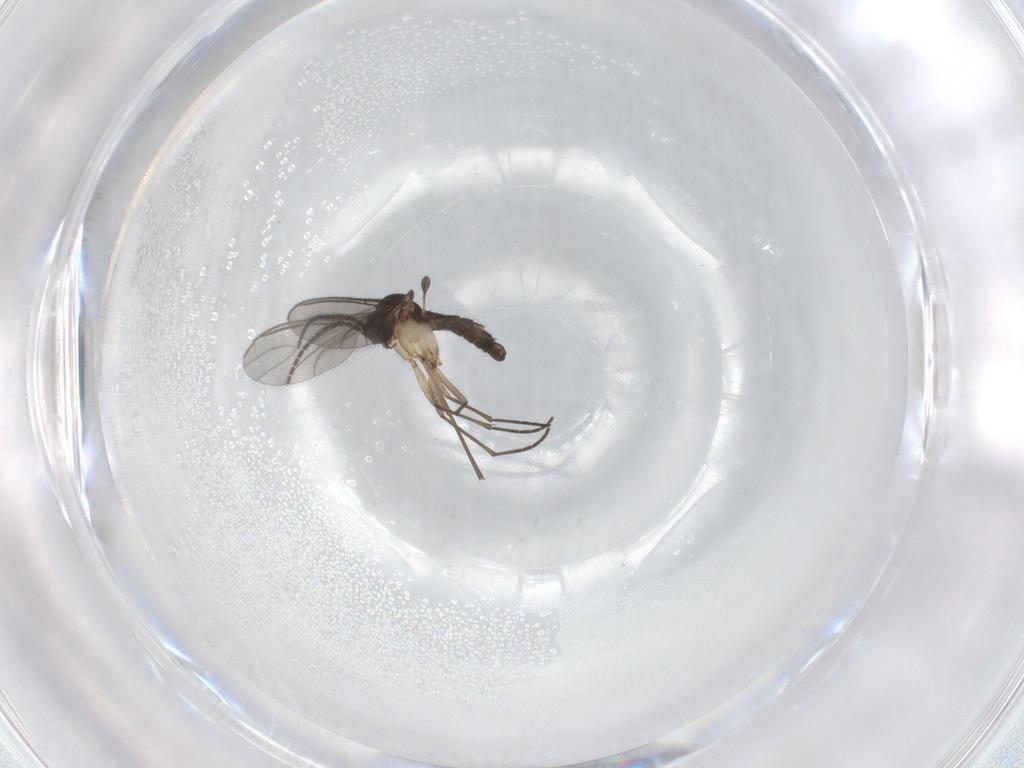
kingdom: Animalia
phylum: Arthropoda
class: Insecta
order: Diptera
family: Sciaridae
